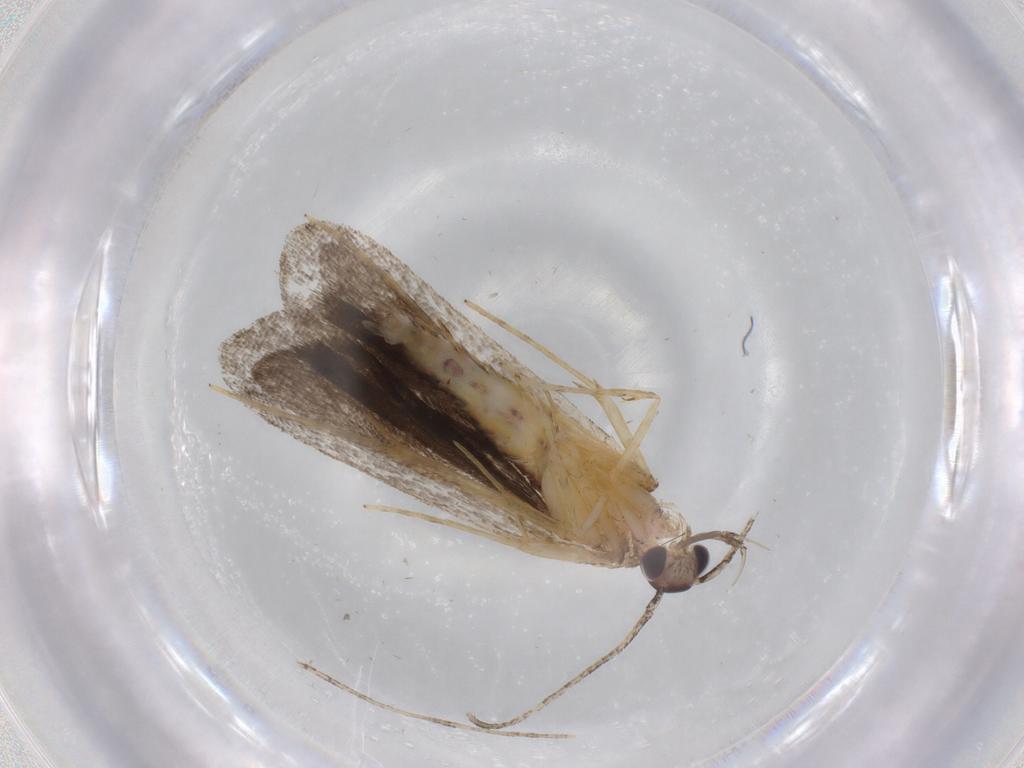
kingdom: Animalia
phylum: Arthropoda
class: Insecta
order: Lepidoptera
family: Cosmopterigidae
